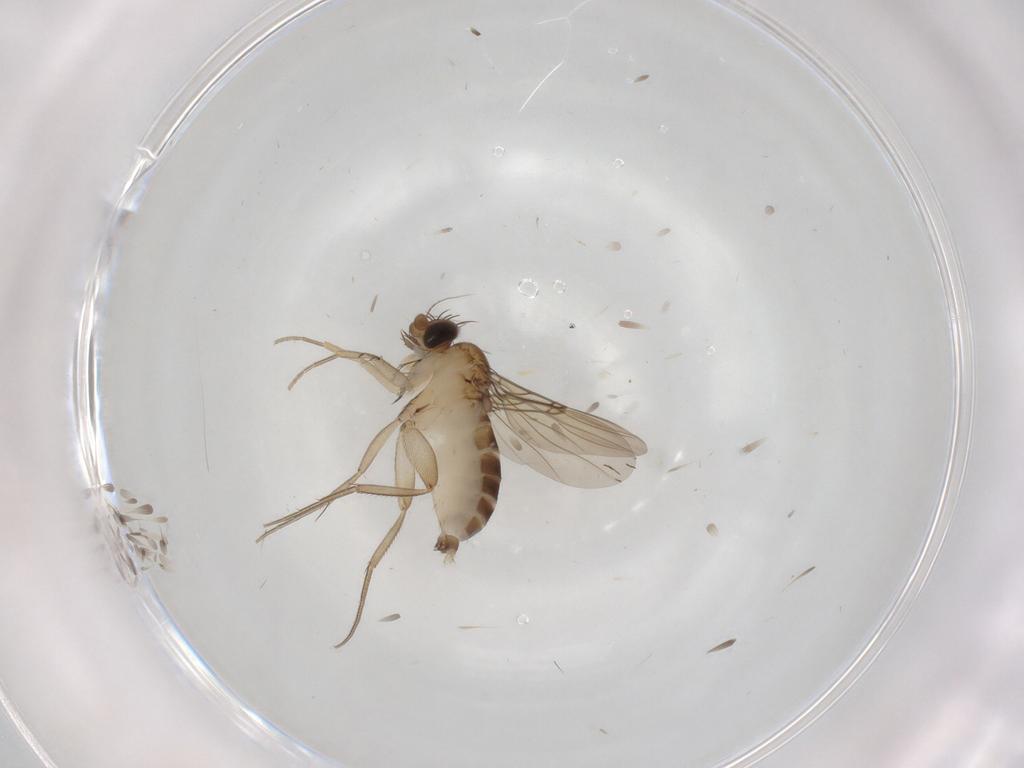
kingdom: Animalia
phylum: Arthropoda
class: Insecta
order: Diptera
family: Phoridae
